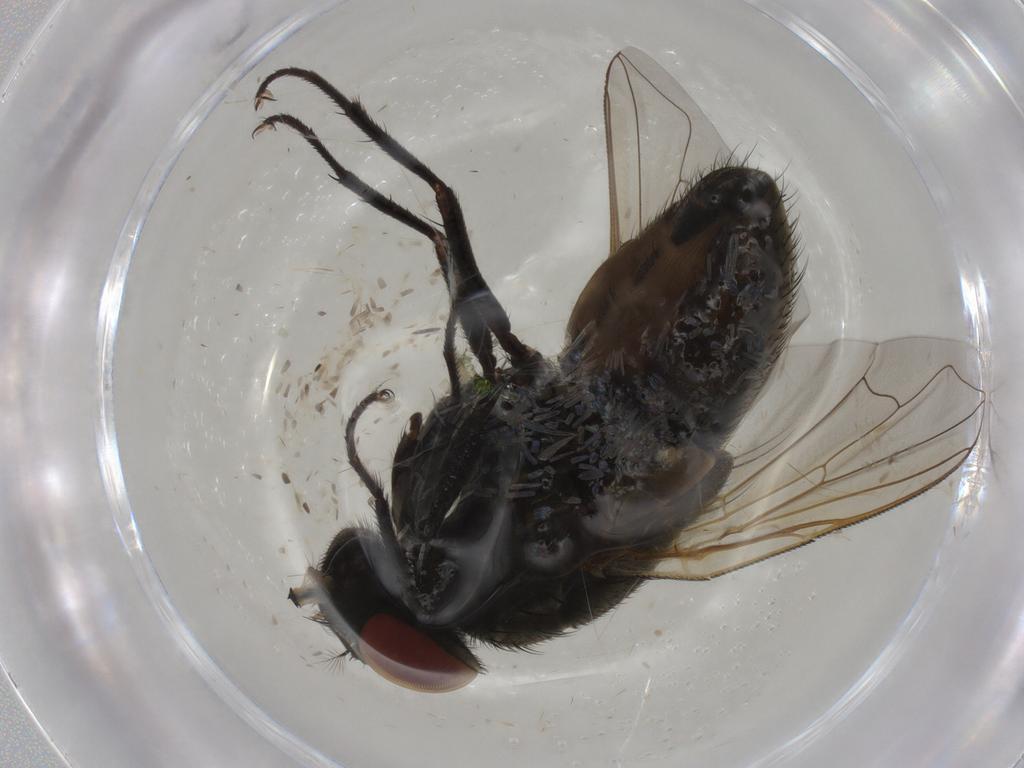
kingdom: Animalia
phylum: Arthropoda
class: Insecta
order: Diptera
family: Muscidae
